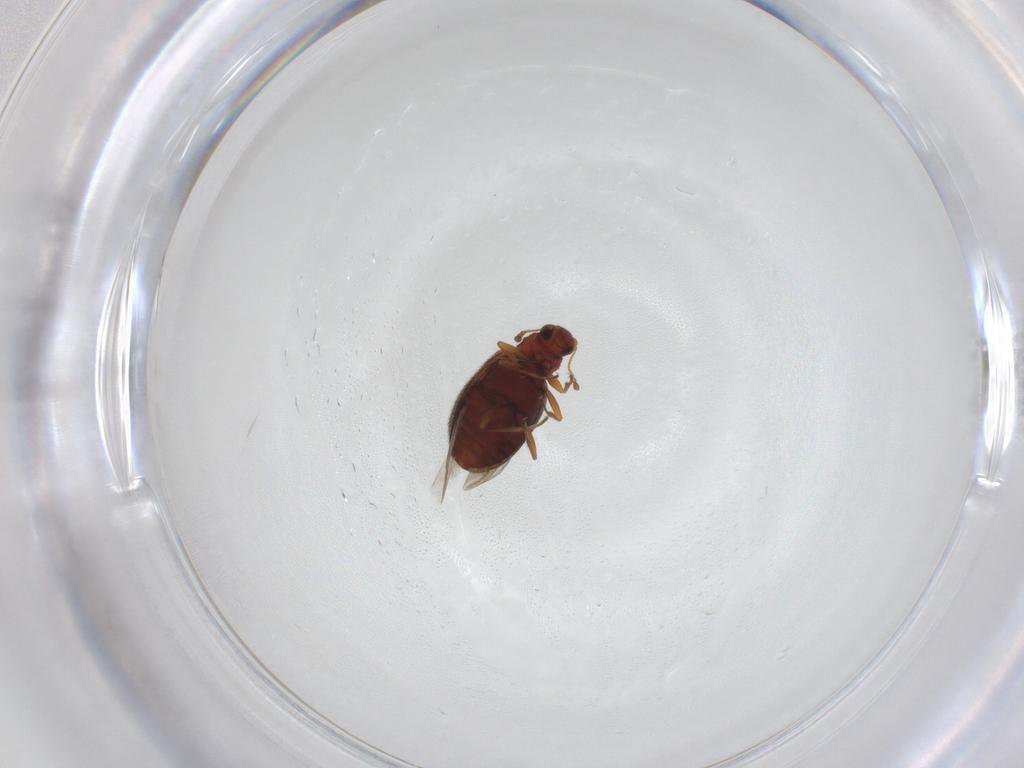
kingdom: Animalia
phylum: Arthropoda
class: Insecta
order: Coleoptera
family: Latridiidae
